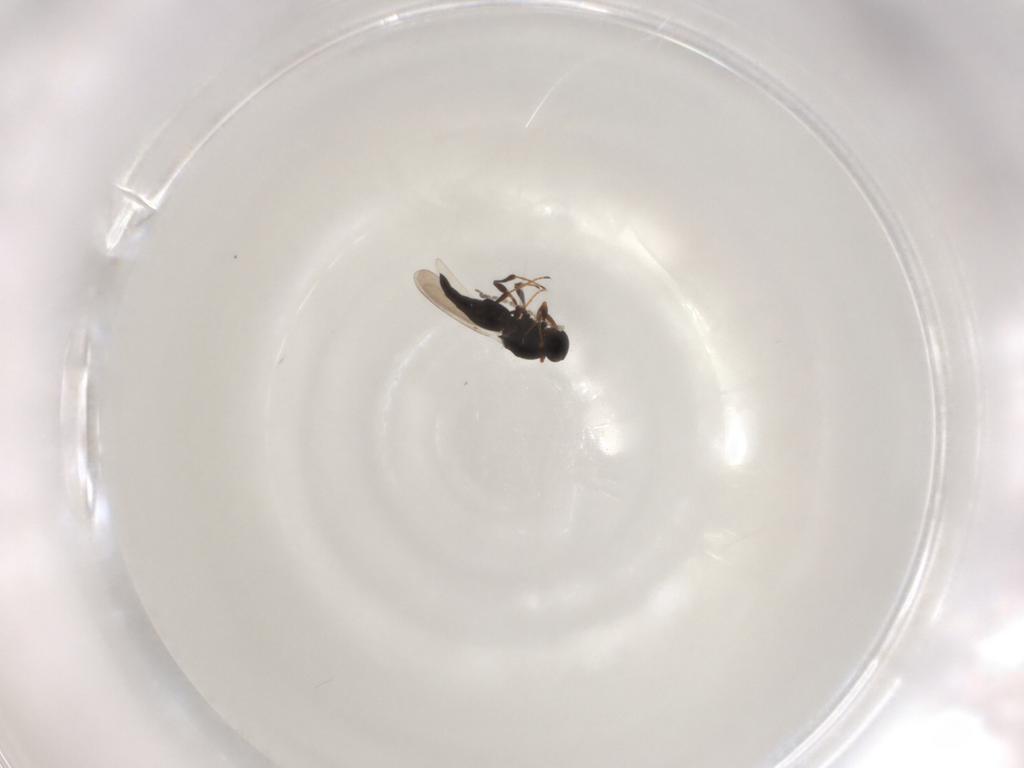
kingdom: Animalia
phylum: Arthropoda
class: Insecta
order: Hymenoptera
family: Platygastridae
